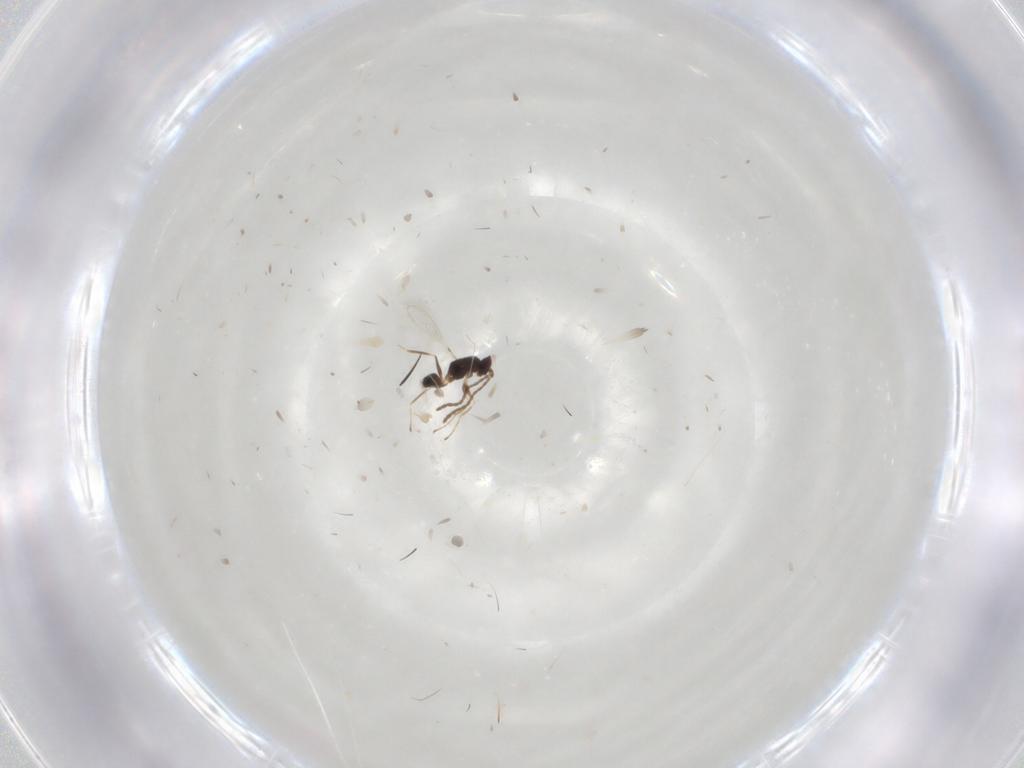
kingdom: Animalia
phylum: Arthropoda
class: Insecta
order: Hymenoptera
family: Mymaridae
